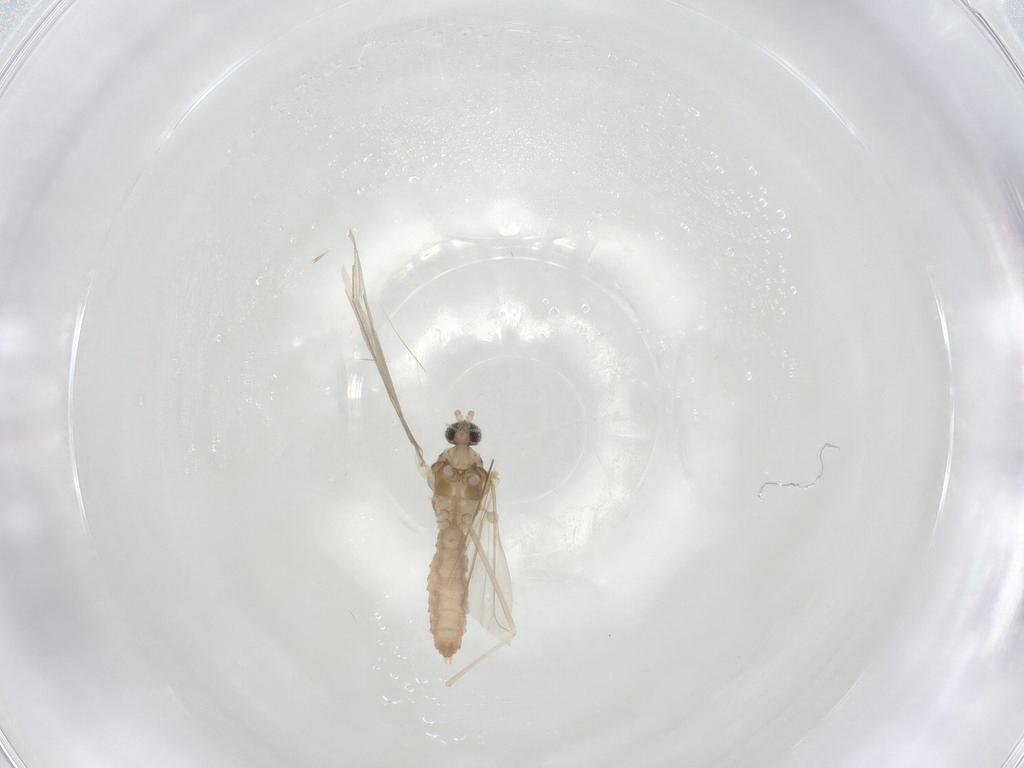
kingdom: Animalia
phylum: Arthropoda
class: Insecta
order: Diptera
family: Cecidomyiidae
